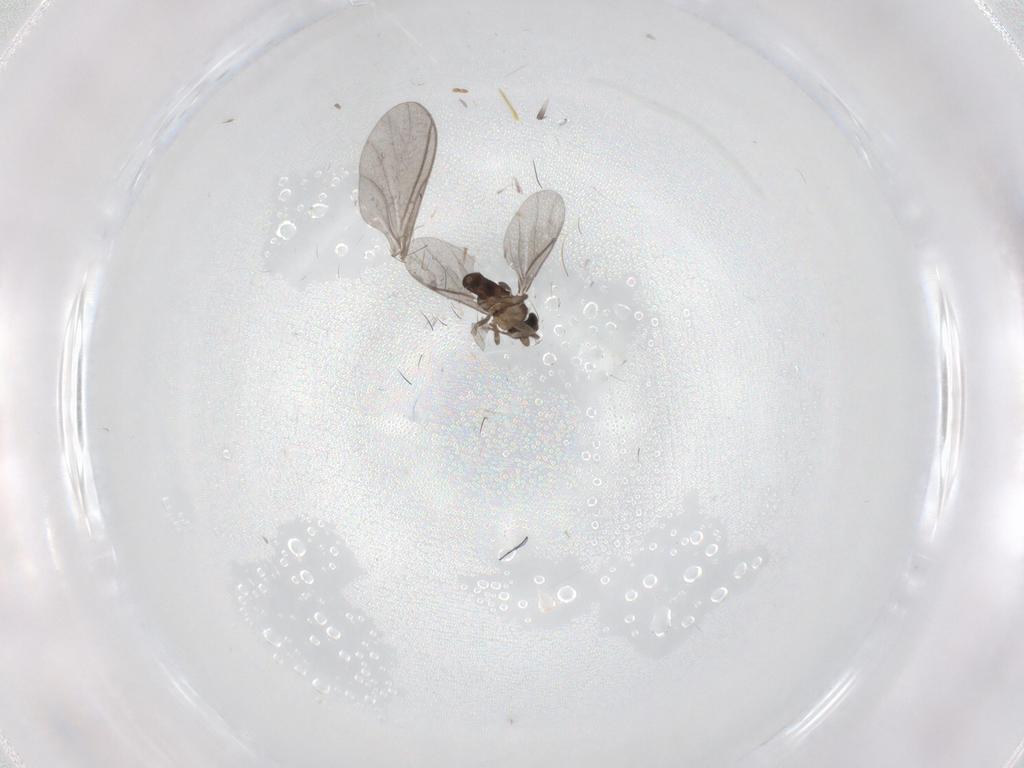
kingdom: Animalia
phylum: Arthropoda
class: Insecta
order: Diptera
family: Sciaridae
